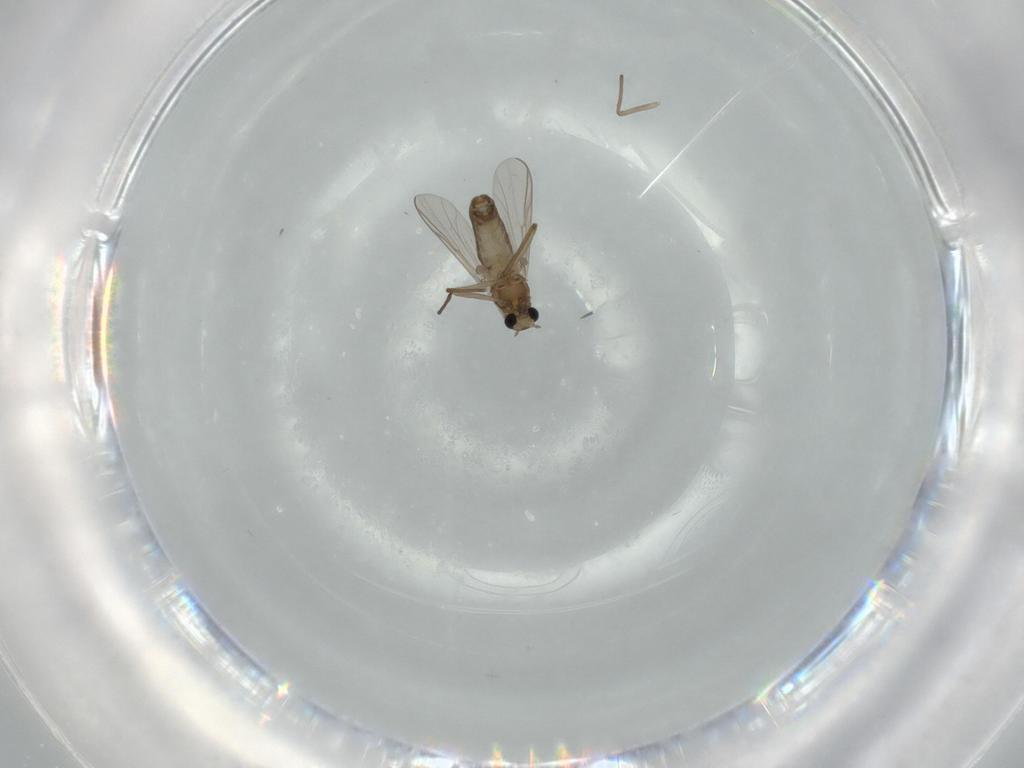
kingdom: Animalia
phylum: Arthropoda
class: Insecta
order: Diptera
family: Chironomidae
